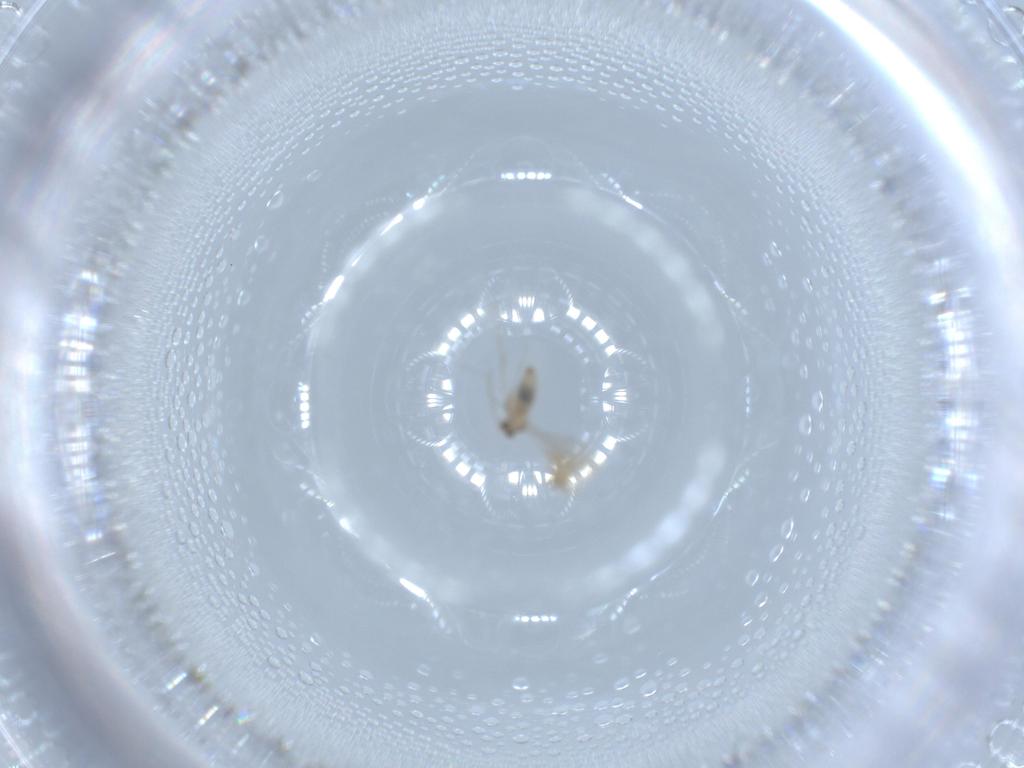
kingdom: Animalia
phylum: Arthropoda
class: Insecta
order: Diptera
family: Cecidomyiidae
